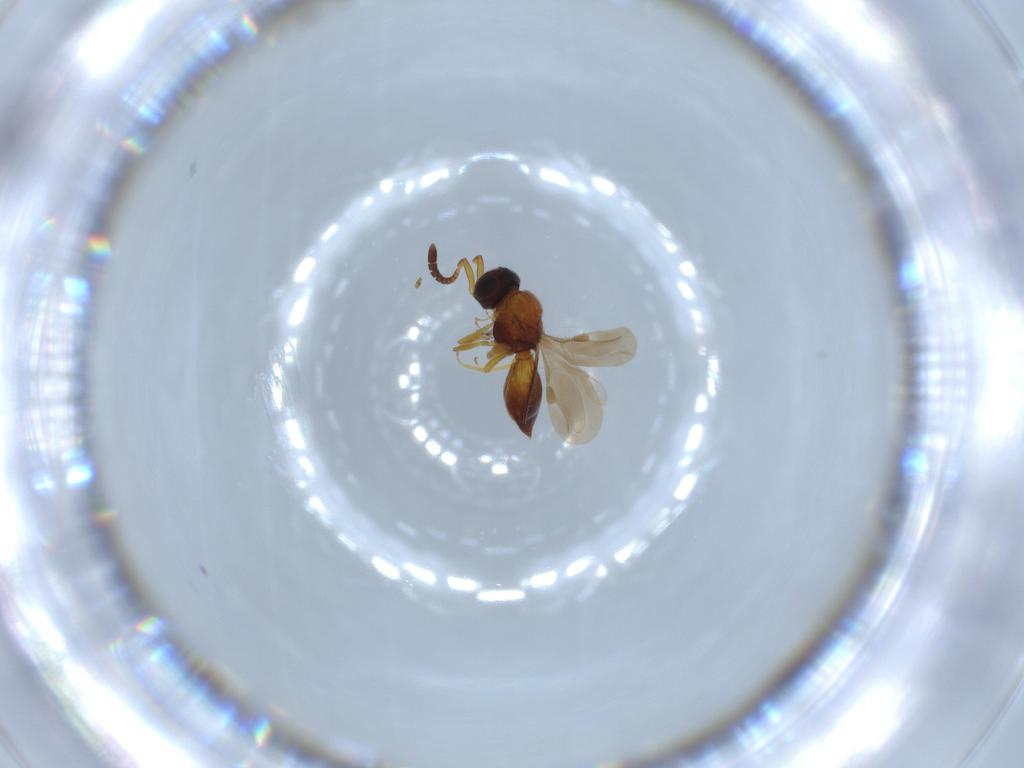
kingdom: Animalia
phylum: Arthropoda
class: Insecta
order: Hymenoptera
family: Megaspilidae
